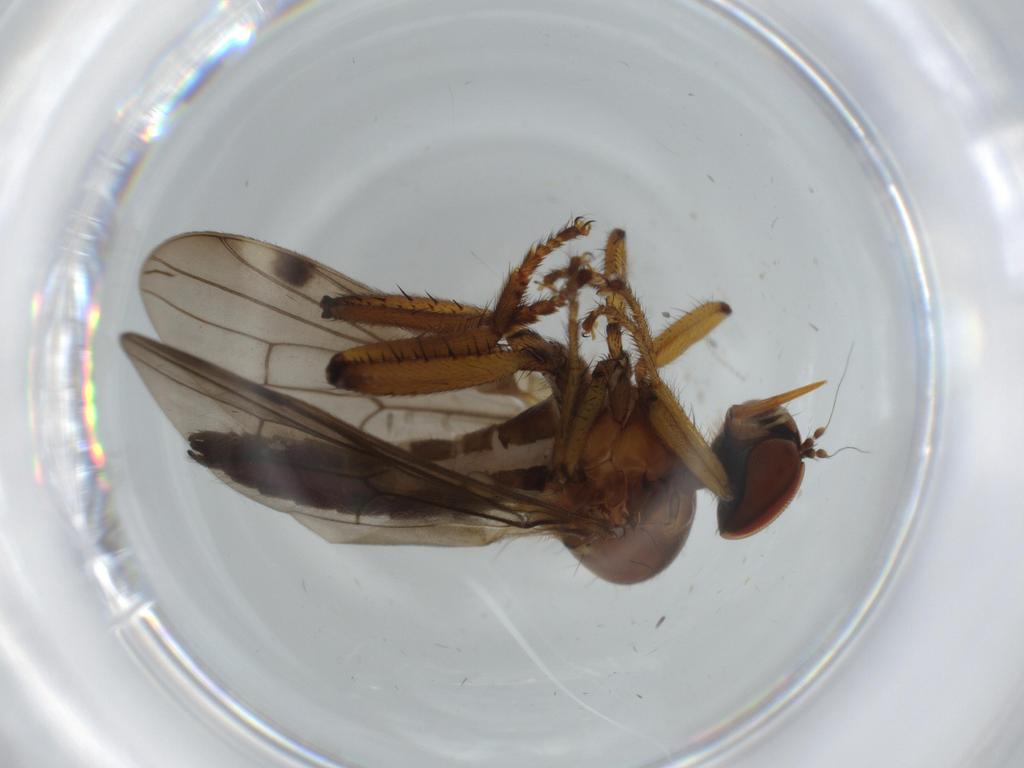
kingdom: Animalia
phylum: Arthropoda
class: Insecta
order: Diptera
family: Hybotidae
